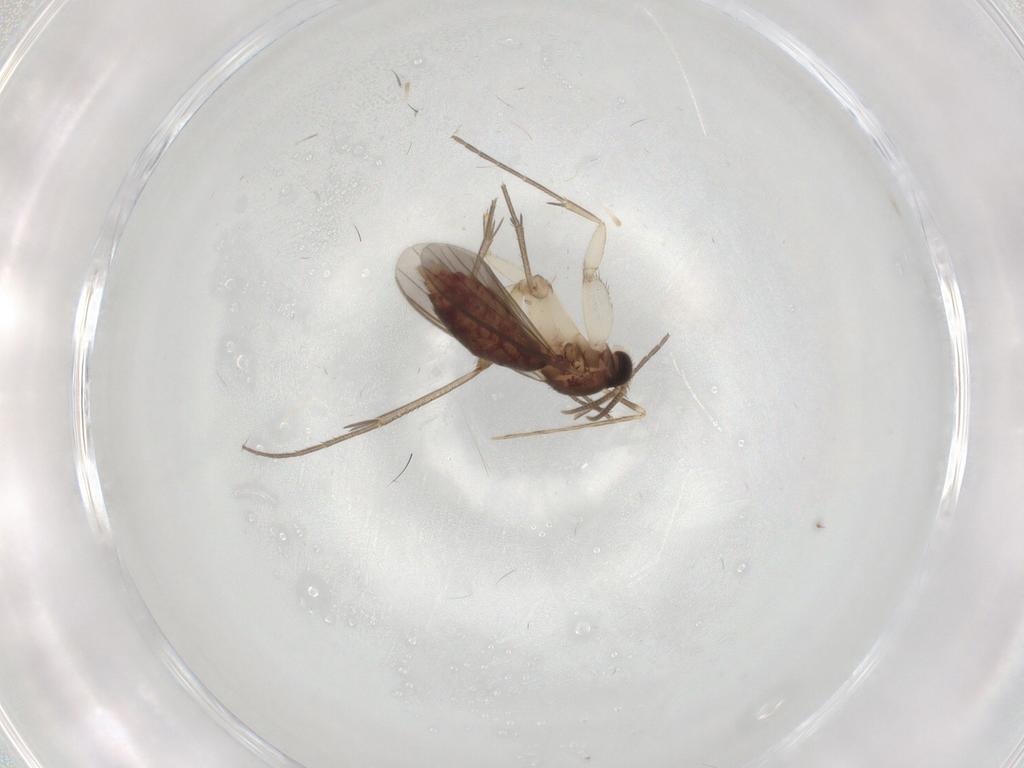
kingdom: Animalia
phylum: Arthropoda
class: Insecta
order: Diptera
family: Mycetophilidae
